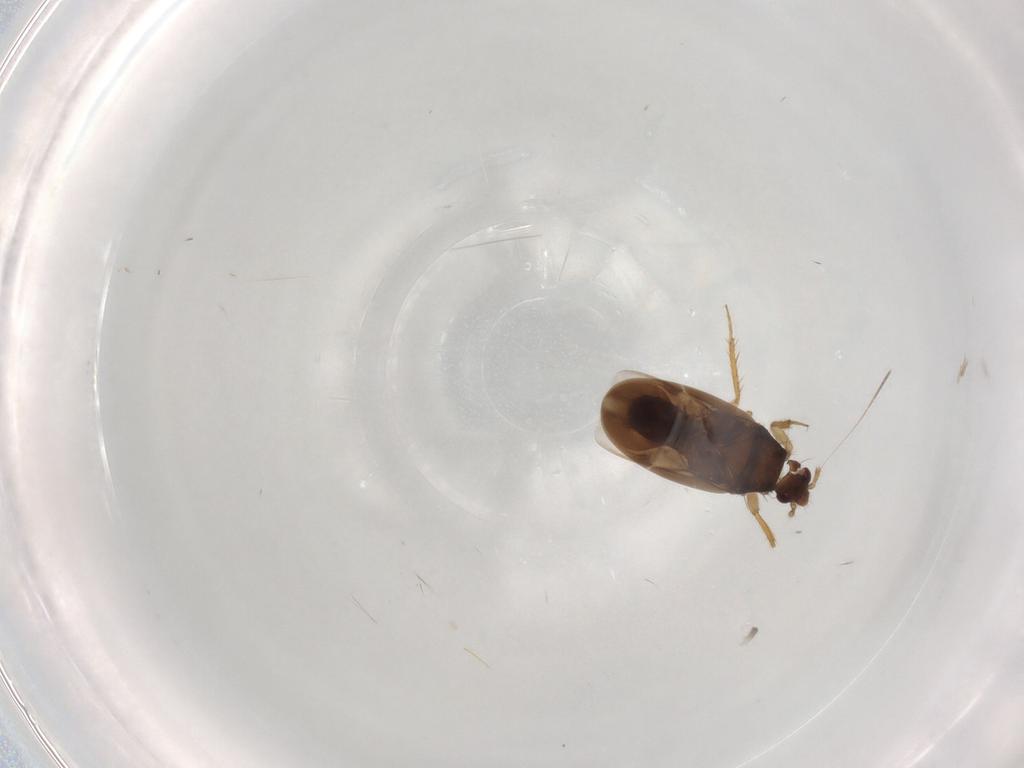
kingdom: Animalia
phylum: Arthropoda
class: Insecta
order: Hemiptera
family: Ceratocombidae
